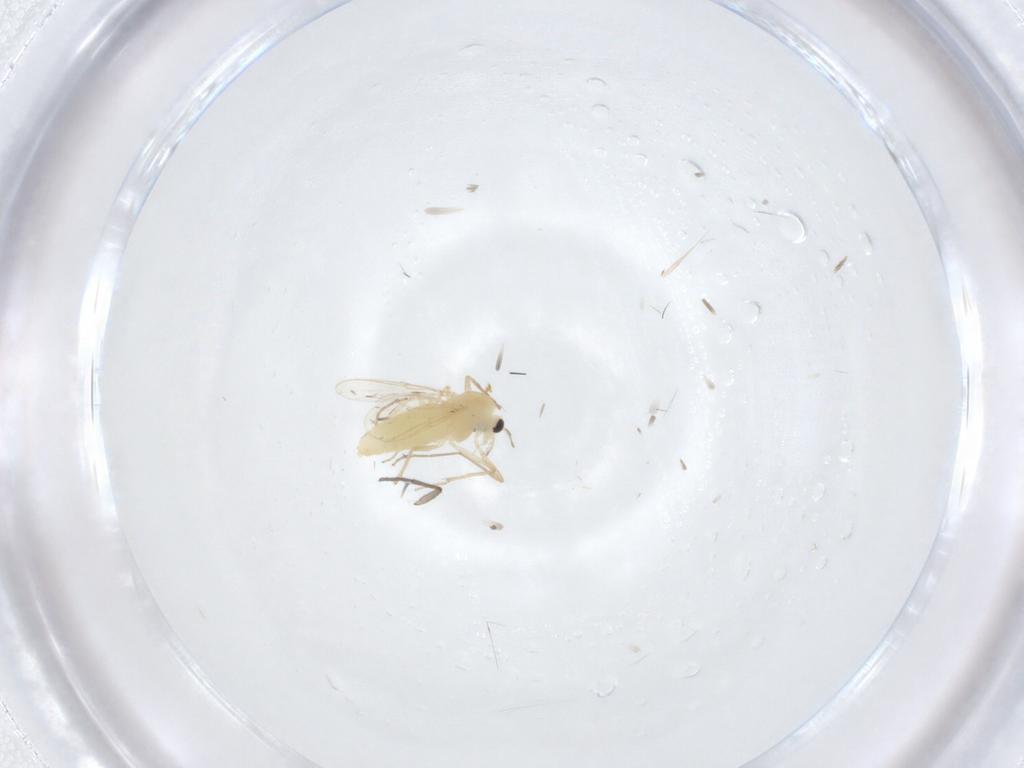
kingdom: Animalia
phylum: Arthropoda
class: Insecta
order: Diptera
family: Chironomidae
